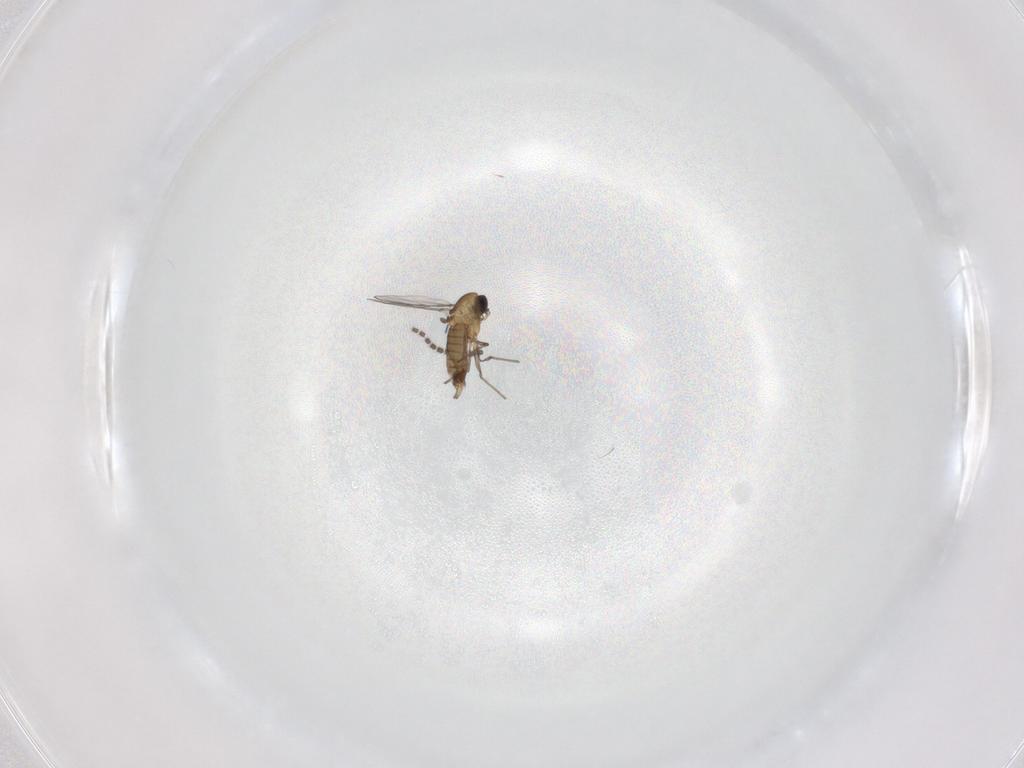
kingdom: Animalia
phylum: Arthropoda
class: Insecta
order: Diptera
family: Chironomidae
